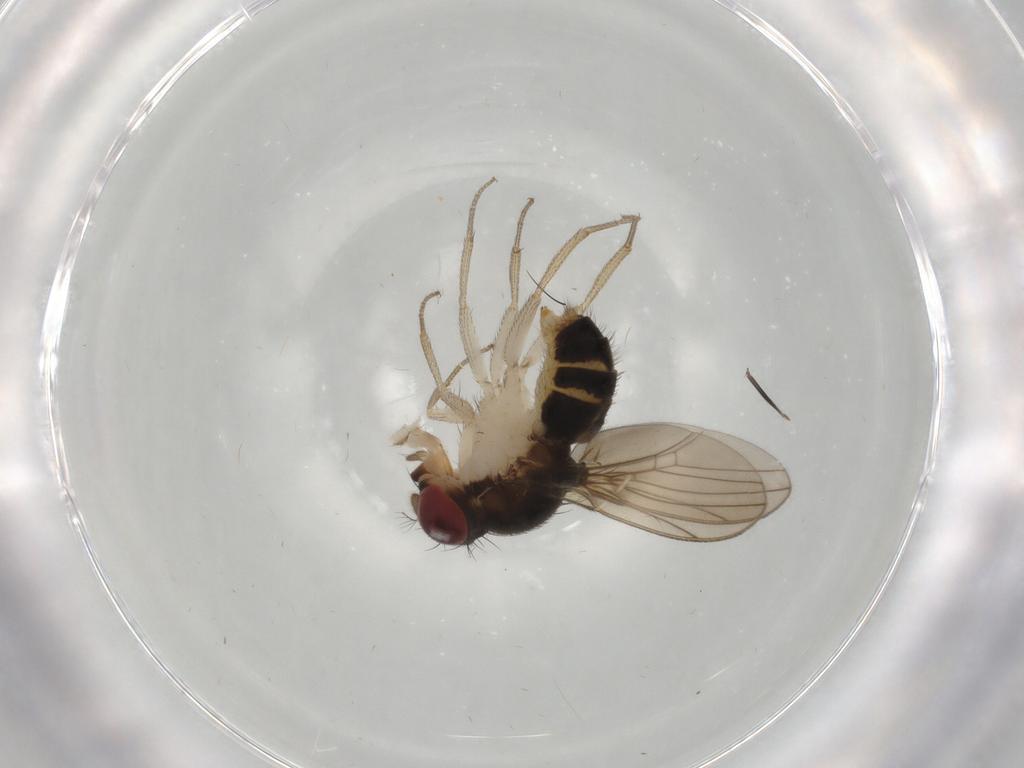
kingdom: Animalia
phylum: Arthropoda
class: Insecta
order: Diptera
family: Drosophilidae
